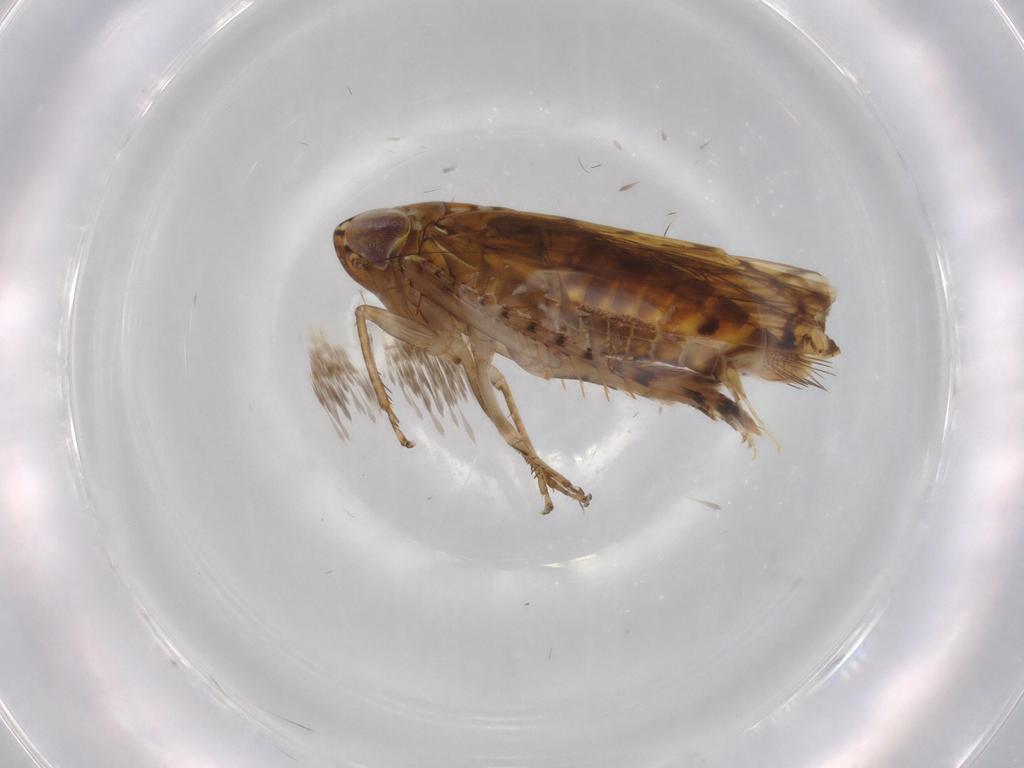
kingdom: Animalia
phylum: Arthropoda
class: Insecta
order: Hemiptera
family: Cicadellidae
